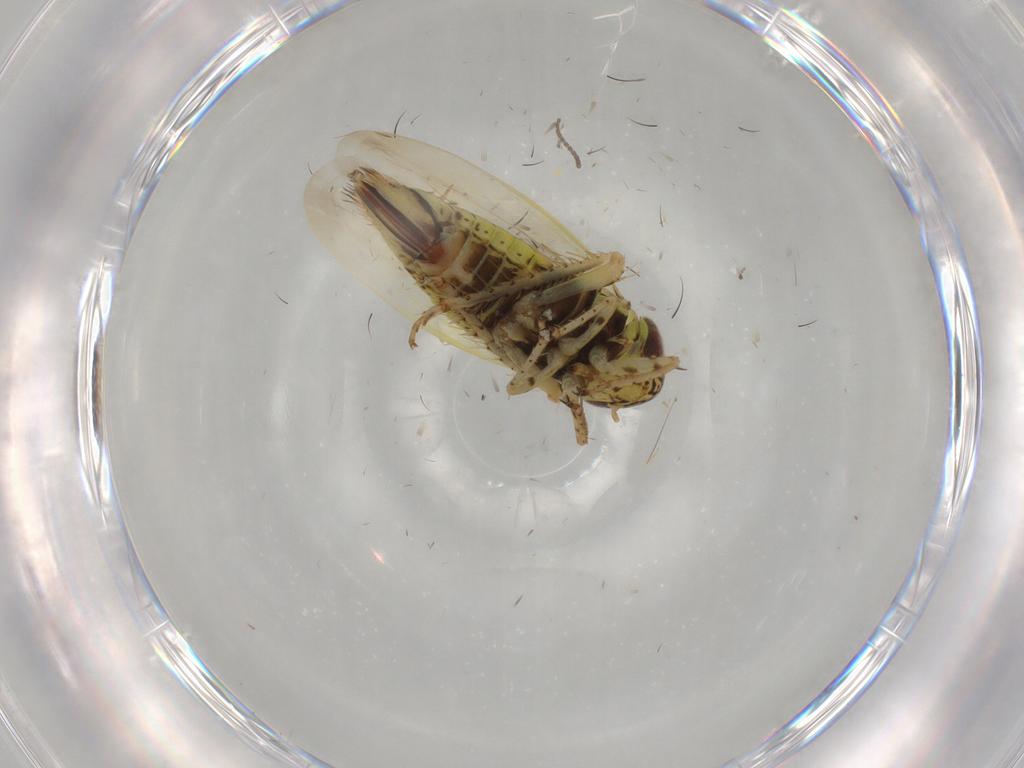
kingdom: Animalia
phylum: Arthropoda
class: Insecta
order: Hemiptera
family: Cicadellidae
